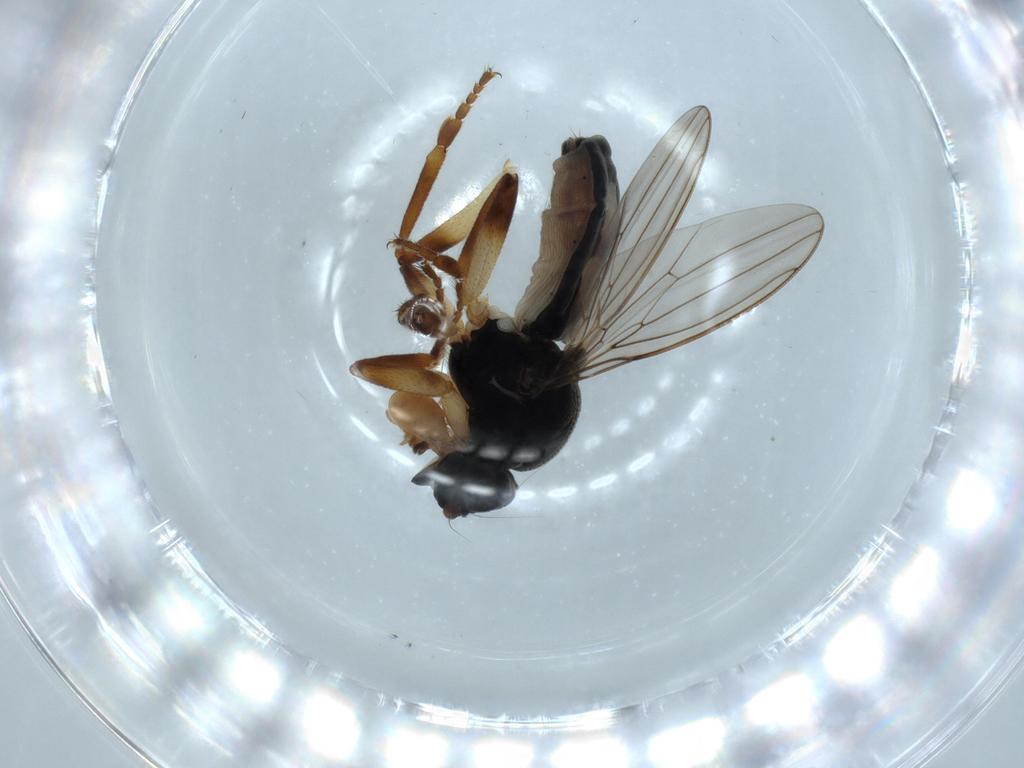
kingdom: Animalia
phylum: Arthropoda
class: Insecta
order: Diptera
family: Sphaeroceridae
